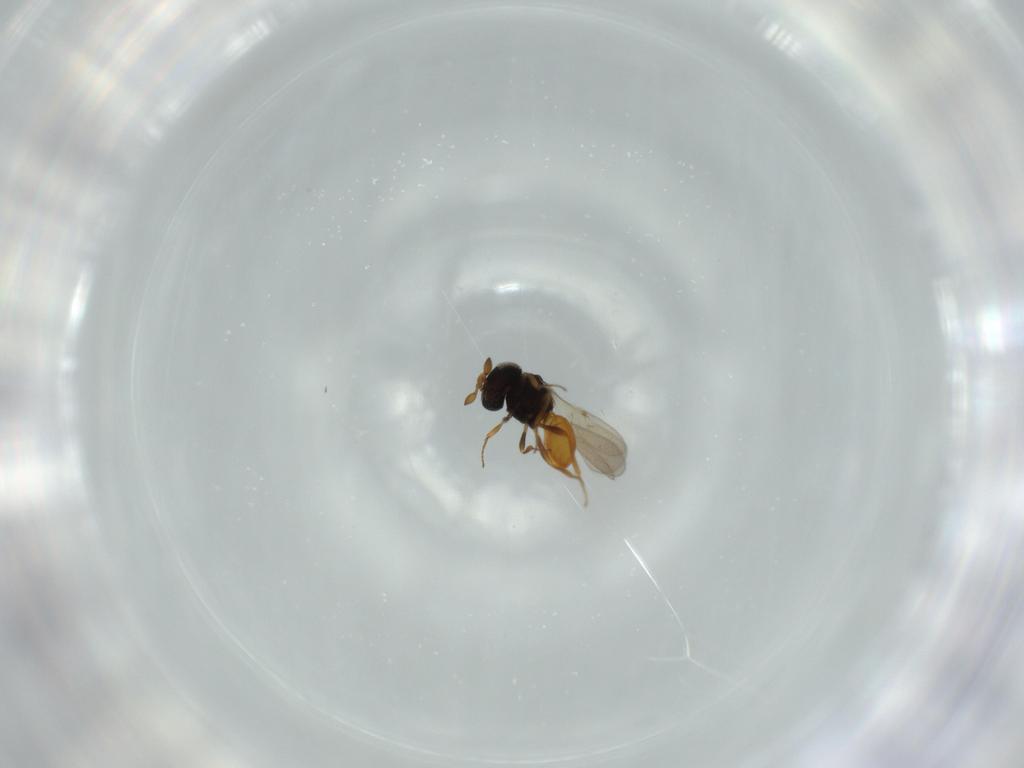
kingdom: Animalia
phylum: Arthropoda
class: Insecta
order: Hymenoptera
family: Scelionidae
